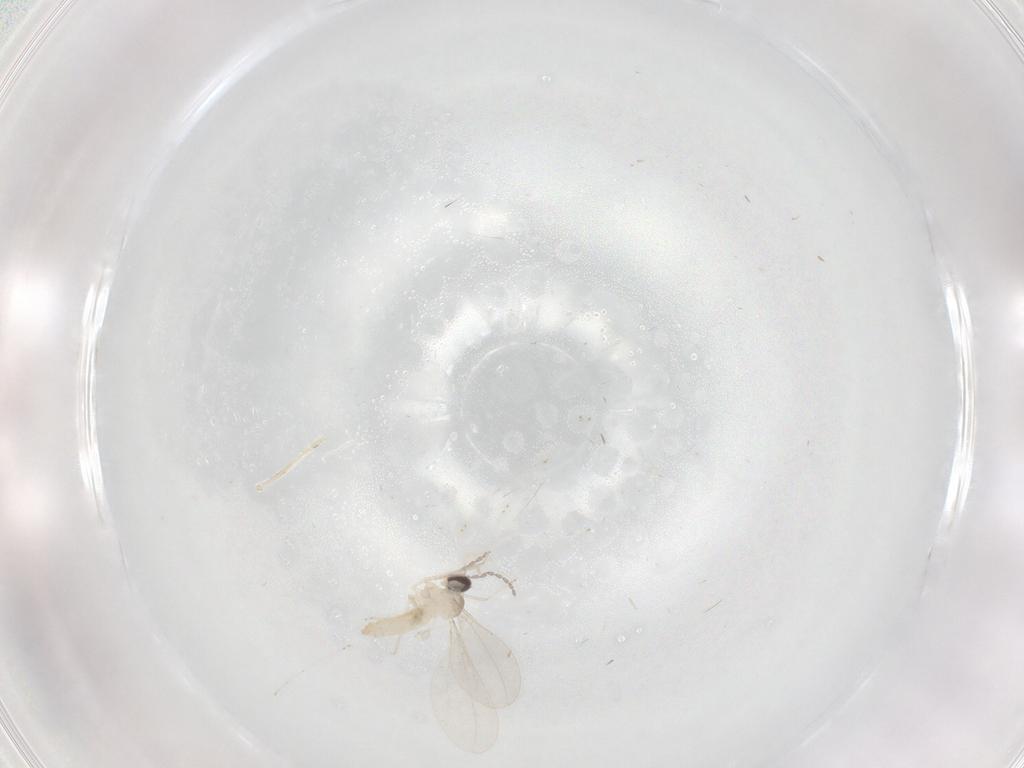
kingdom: Animalia
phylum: Arthropoda
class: Insecta
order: Diptera
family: Cecidomyiidae
